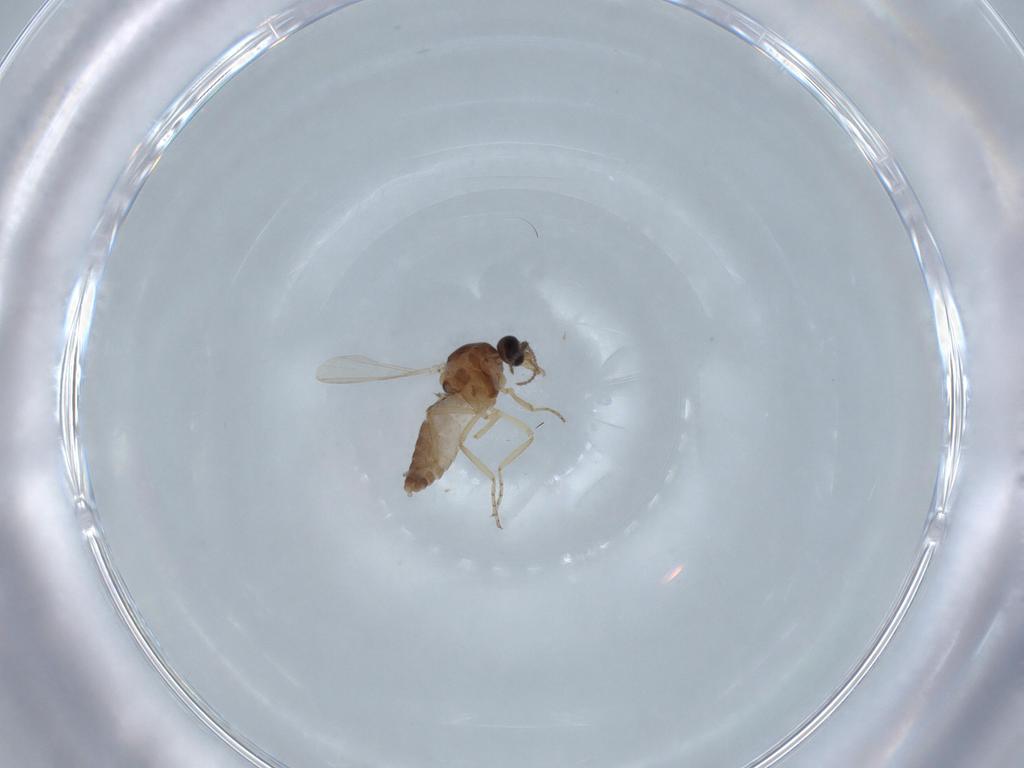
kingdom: Animalia
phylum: Arthropoda
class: Insecta
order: Diptera
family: Ceratopogonidae
